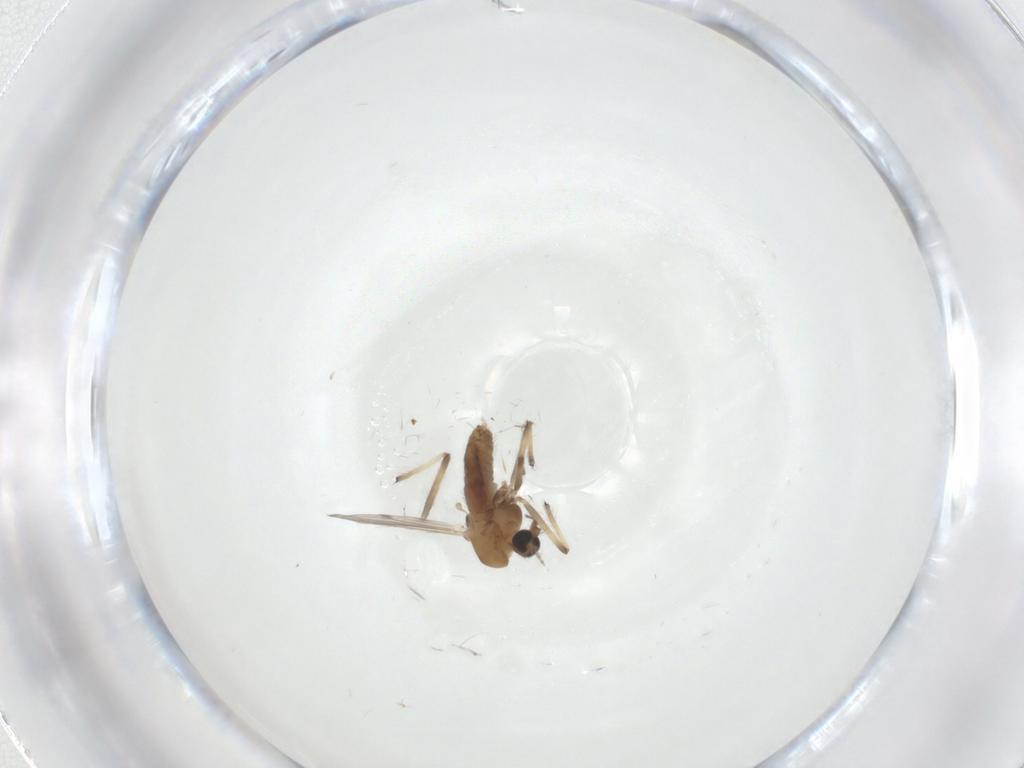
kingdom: Animalia
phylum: Arthropoda
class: Insecta
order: Diptera
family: Chironomidae
